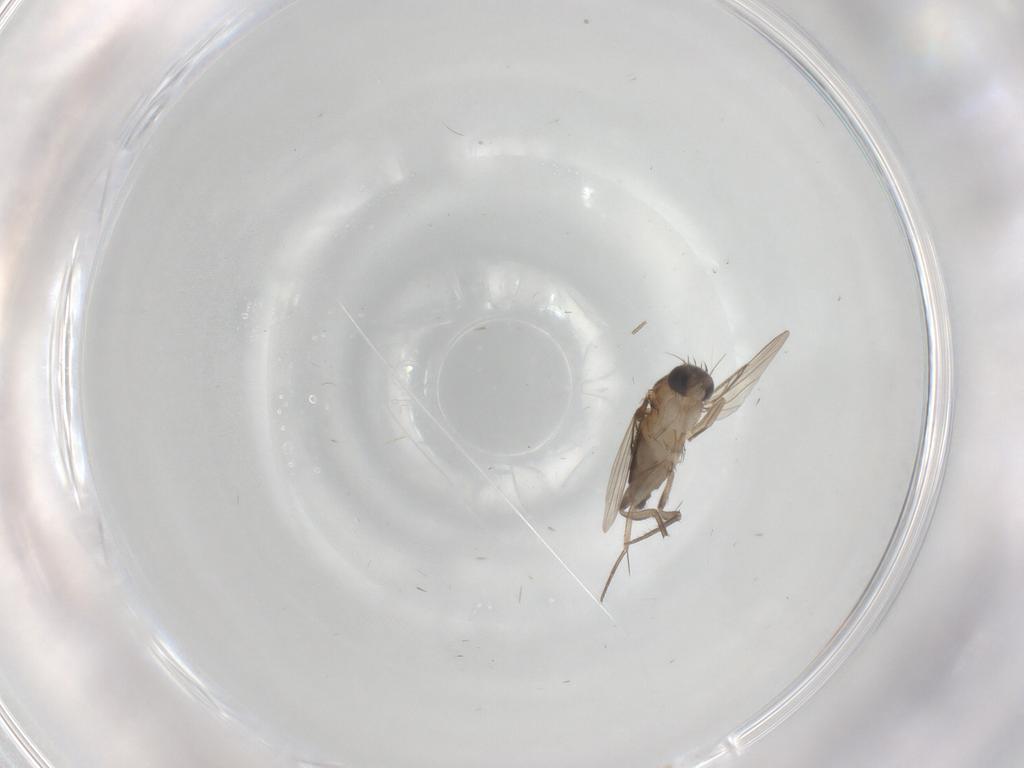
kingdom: Animalia
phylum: Arthropoda
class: Insecta
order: Diptera
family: Phoridae
